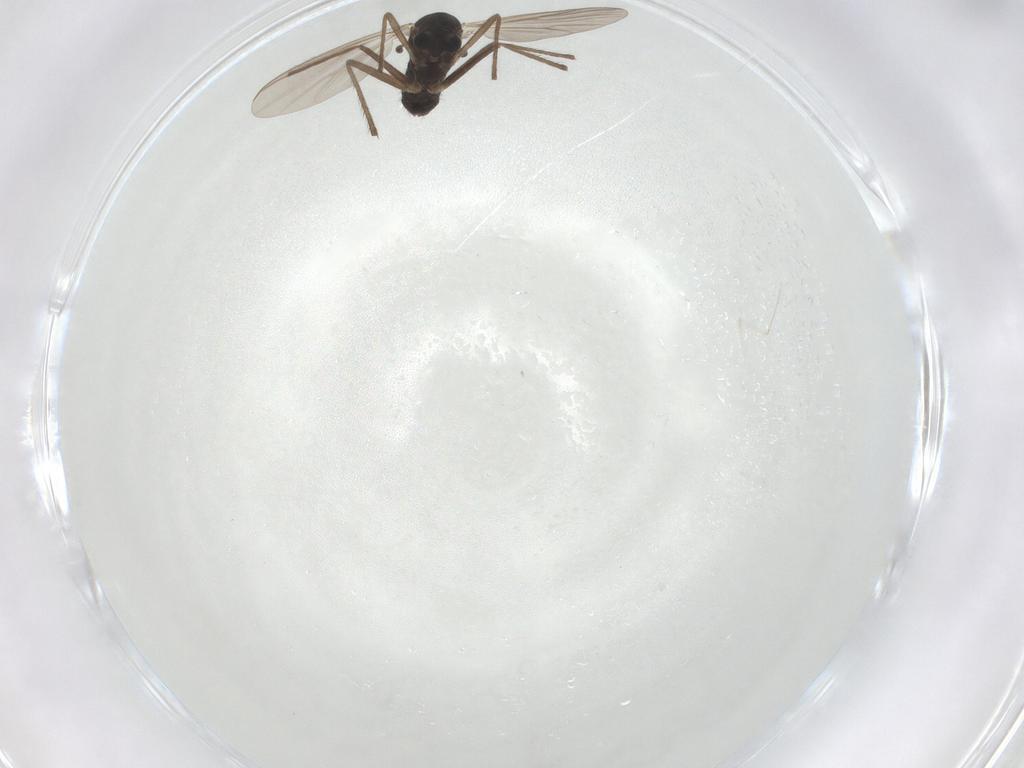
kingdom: Animalia
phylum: Arthropoda
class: Insecta
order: Diptera
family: Chironomidae
